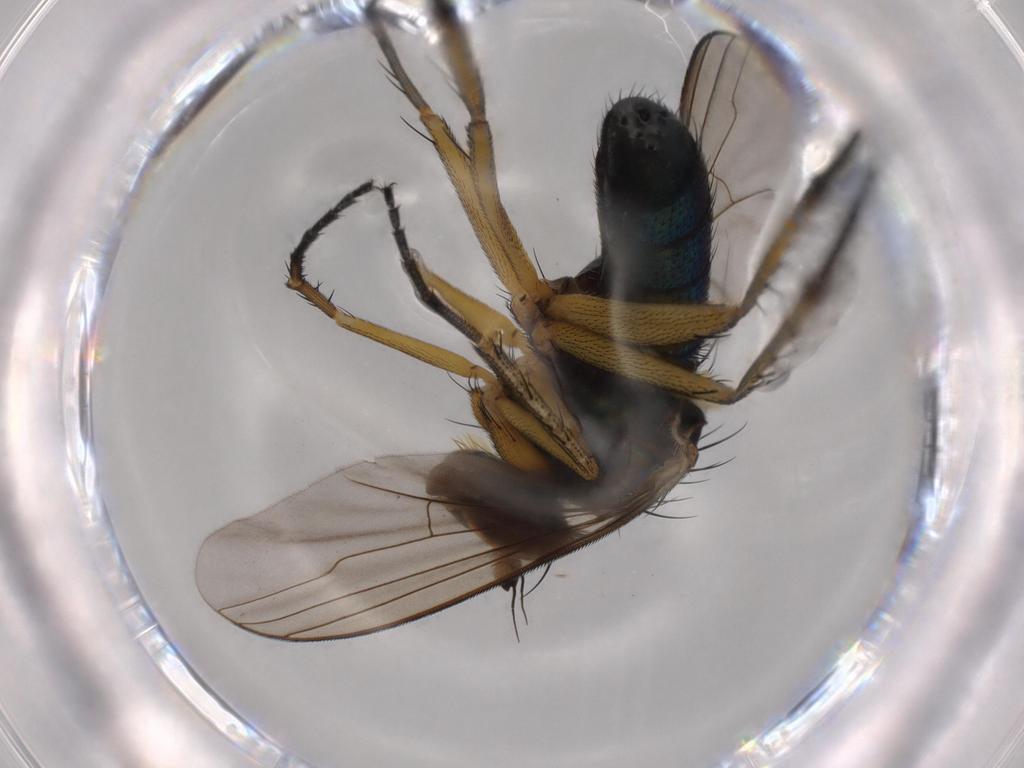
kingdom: Animalia
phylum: Arthropoda
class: Insecta
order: Diptera
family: Dolichopodidae
